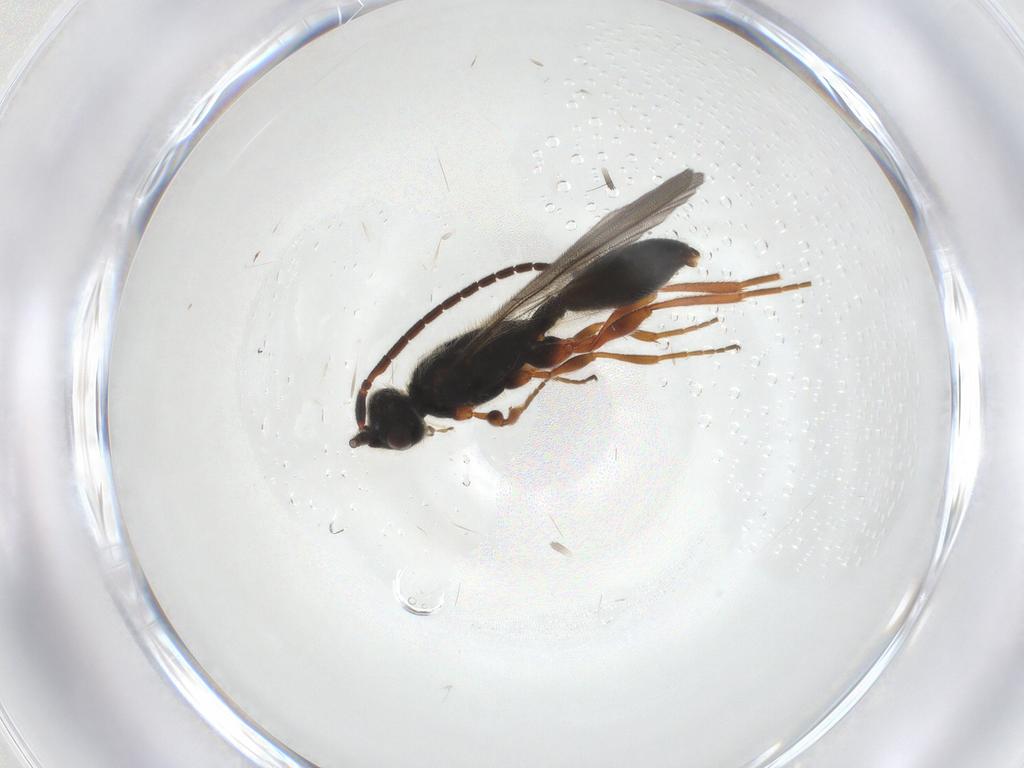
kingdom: Animalia
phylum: Arthropoda
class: Insecta
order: Hymenoptera
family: Diapriidae
